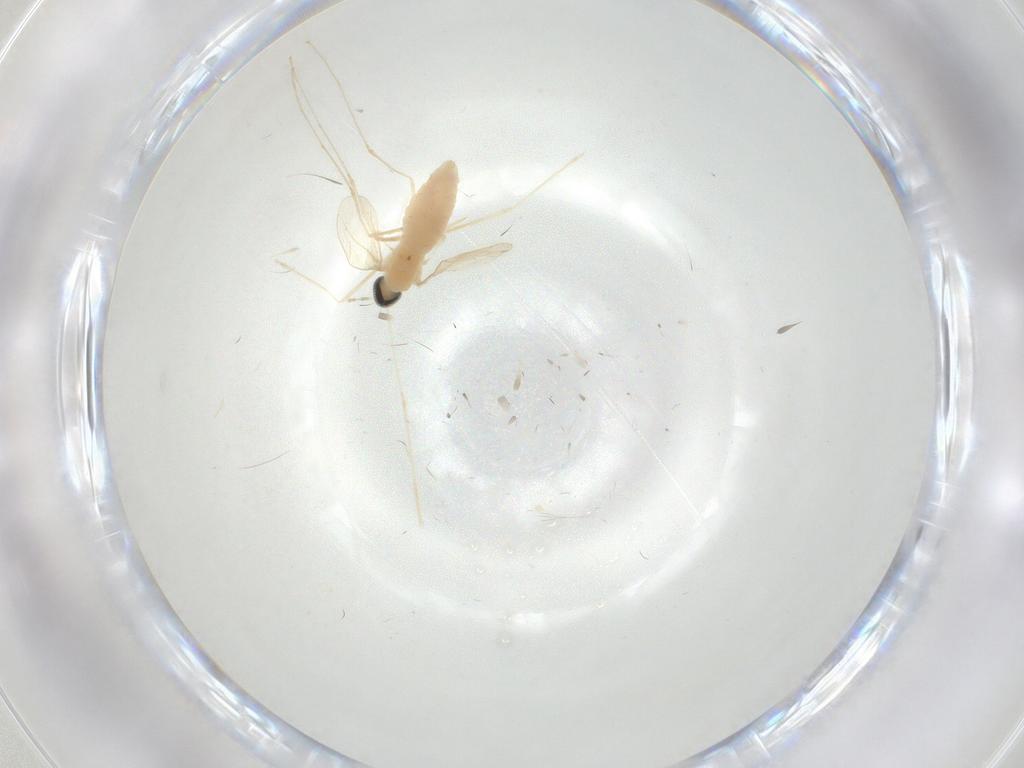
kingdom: Animalia
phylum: Arthropoda
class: Insecta
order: Diptera
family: Cecidomyiidae
